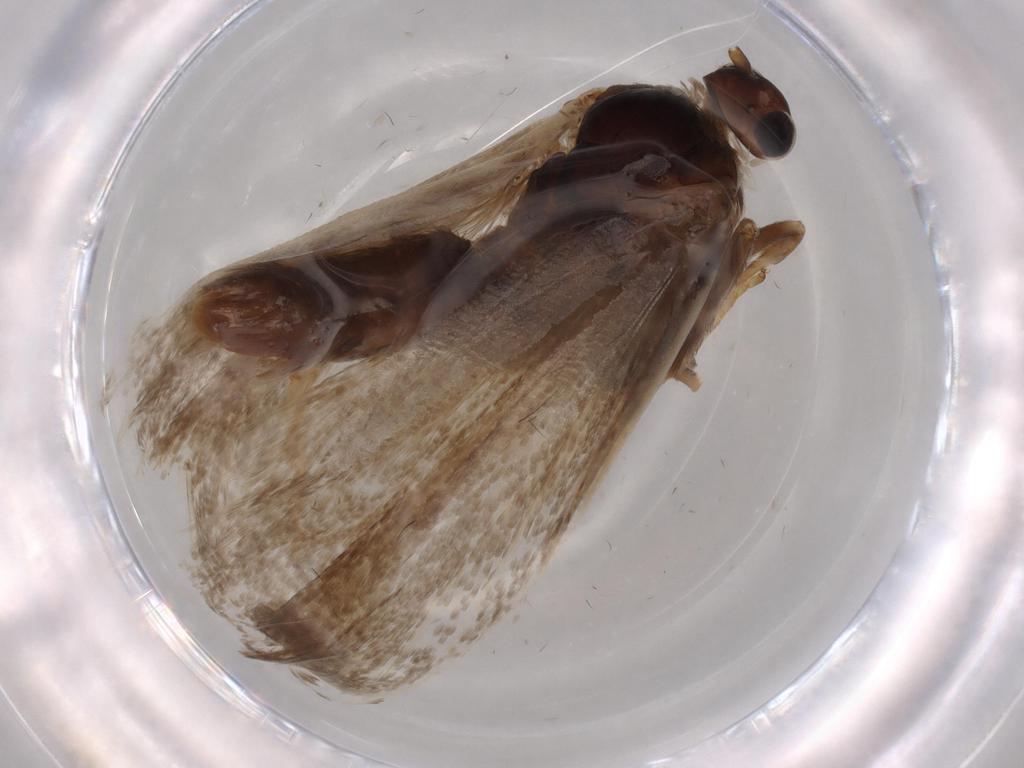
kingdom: Animalia
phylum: Arthropoda
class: Insecta
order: Lepidoptera
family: Tortricidae
